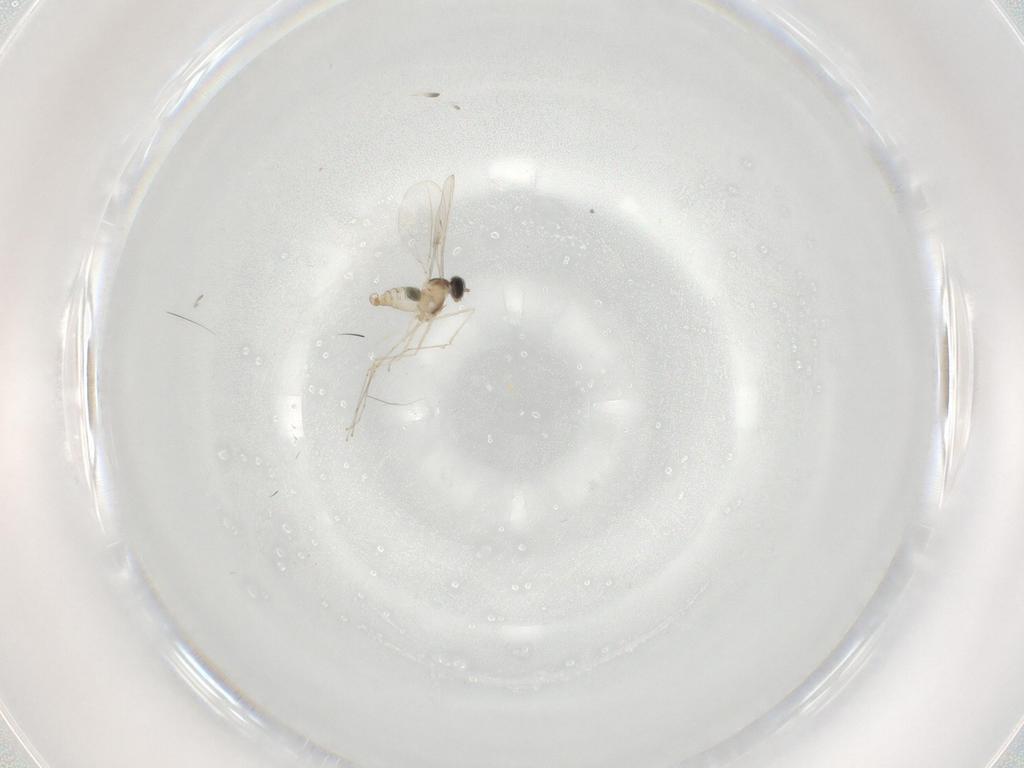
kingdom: Animalia
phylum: Arthropoda
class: Insecta
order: Diptera
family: Cecidomyiidae
